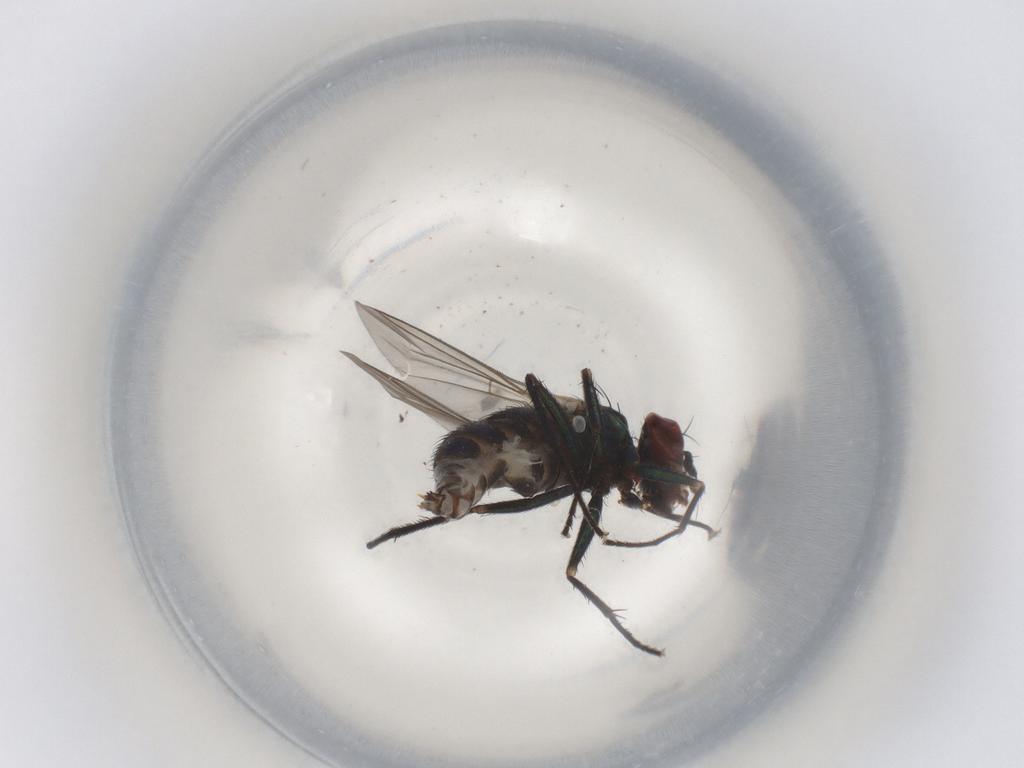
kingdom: Animalia
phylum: Arthropoda
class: Insecta
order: Diptera
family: Dolichopodidae
